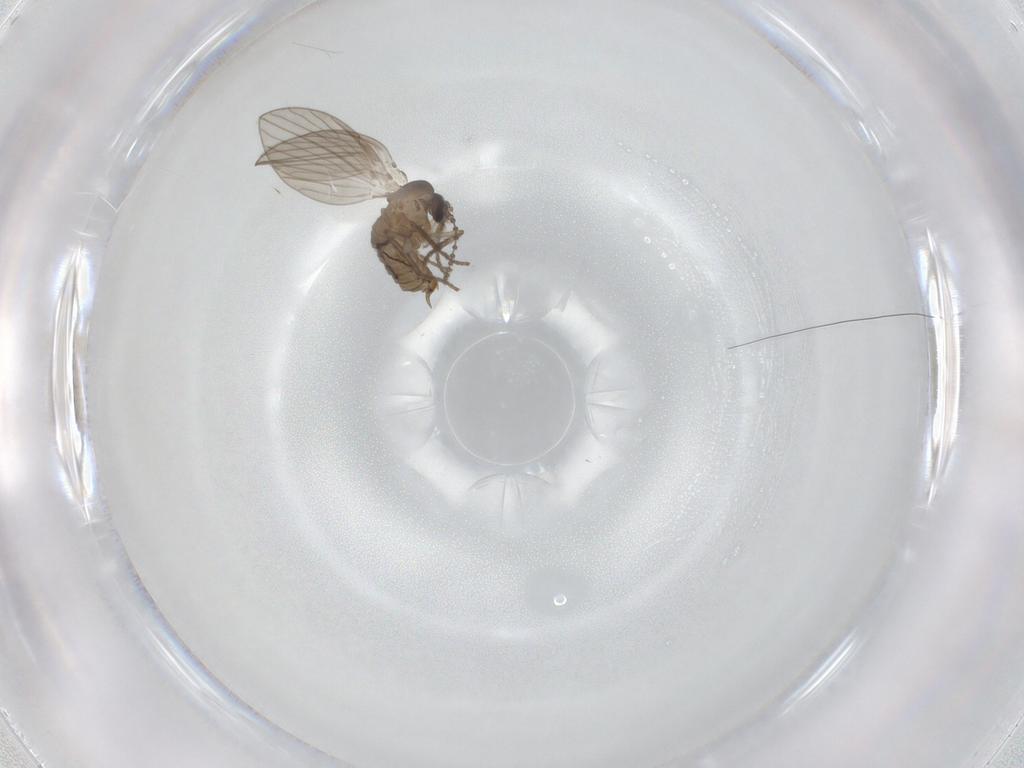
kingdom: Animalia
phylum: Arthropoda
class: Insecta
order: Diptera
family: Psychodidae
